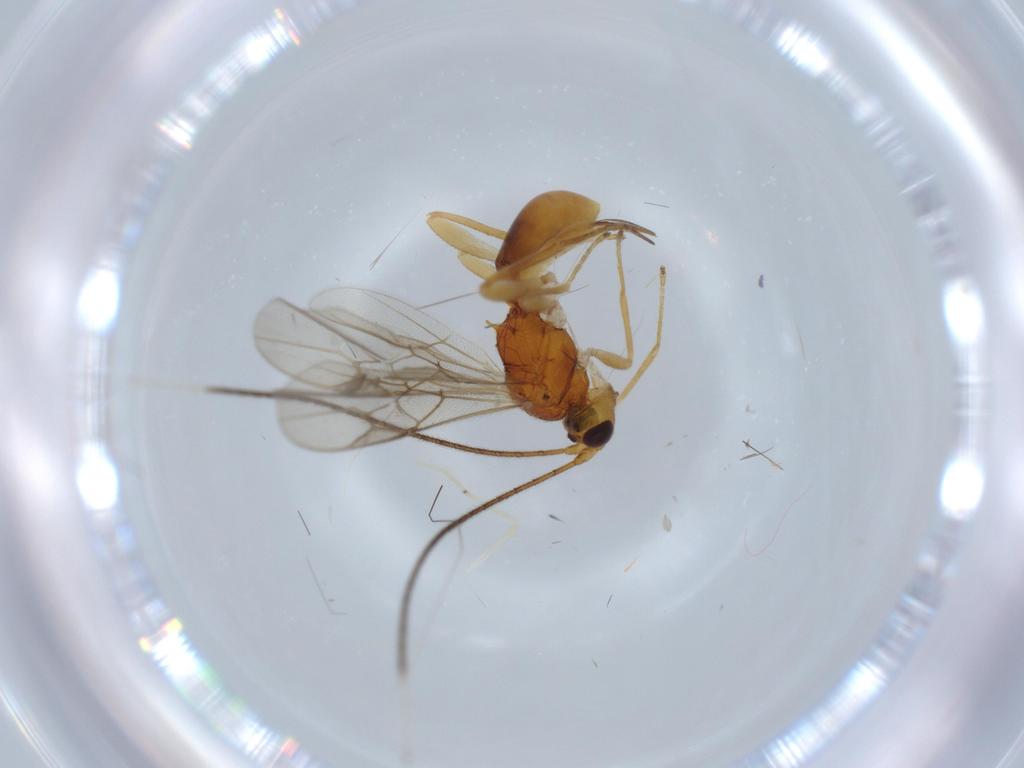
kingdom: Animalia
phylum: Arthropoda
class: Insecta
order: Hymenoptera
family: Braconidae
